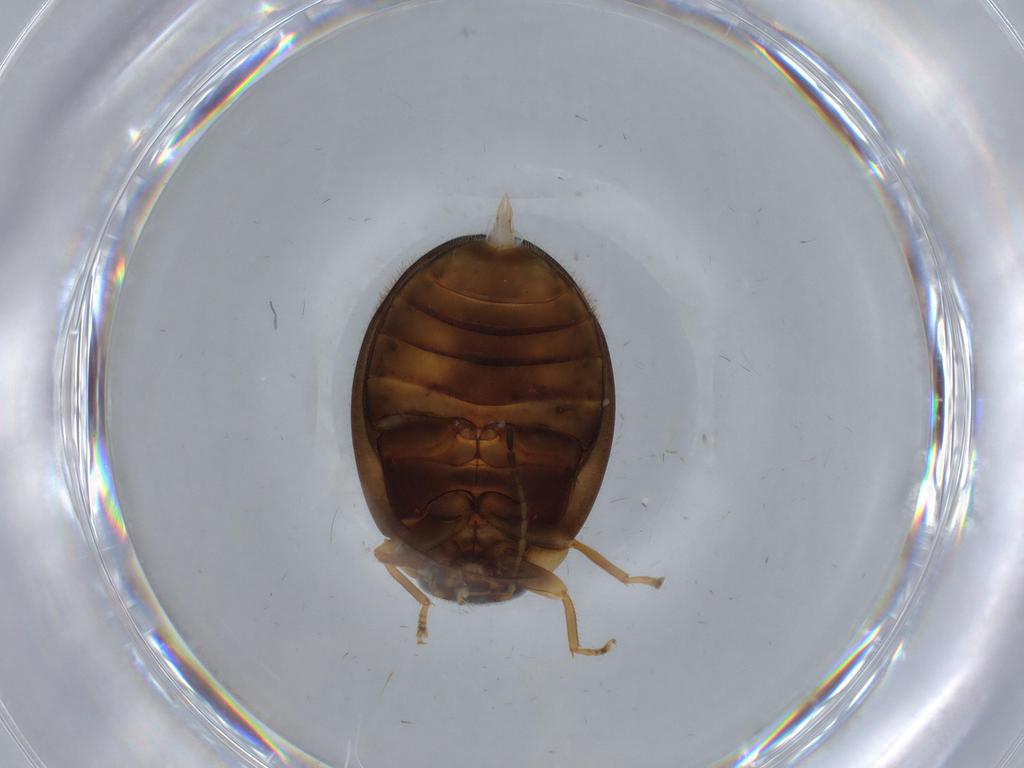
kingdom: Animalia
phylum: Arthropoda
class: Insecta
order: Coleoptera
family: Scirtidae
